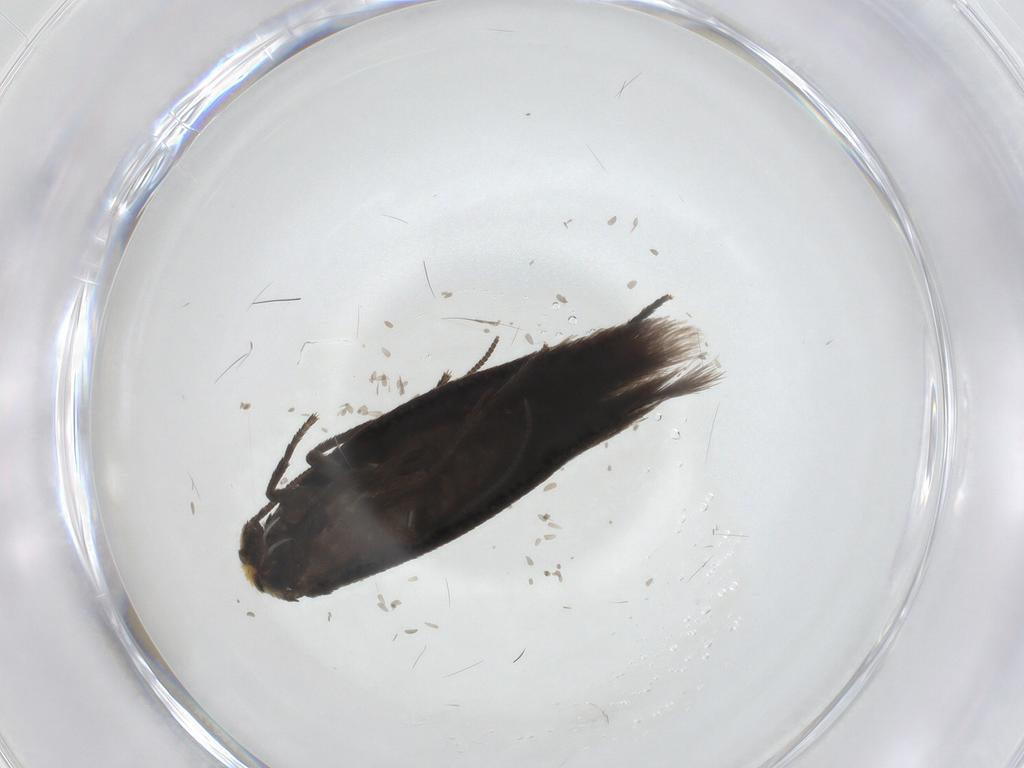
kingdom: Animalia
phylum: Arthropoda
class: Insecta
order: Lepidoptera
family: Nepticulidae
